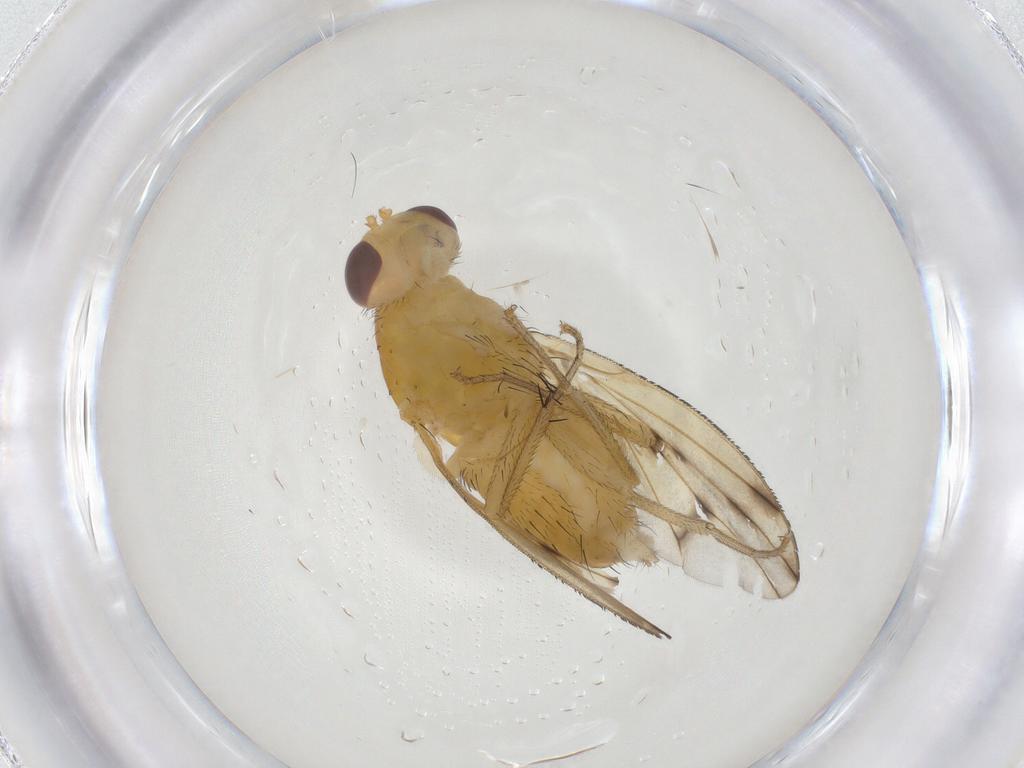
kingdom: Animalia
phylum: Arthropoda
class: Insecta
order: Diptera
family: Chironomidae
